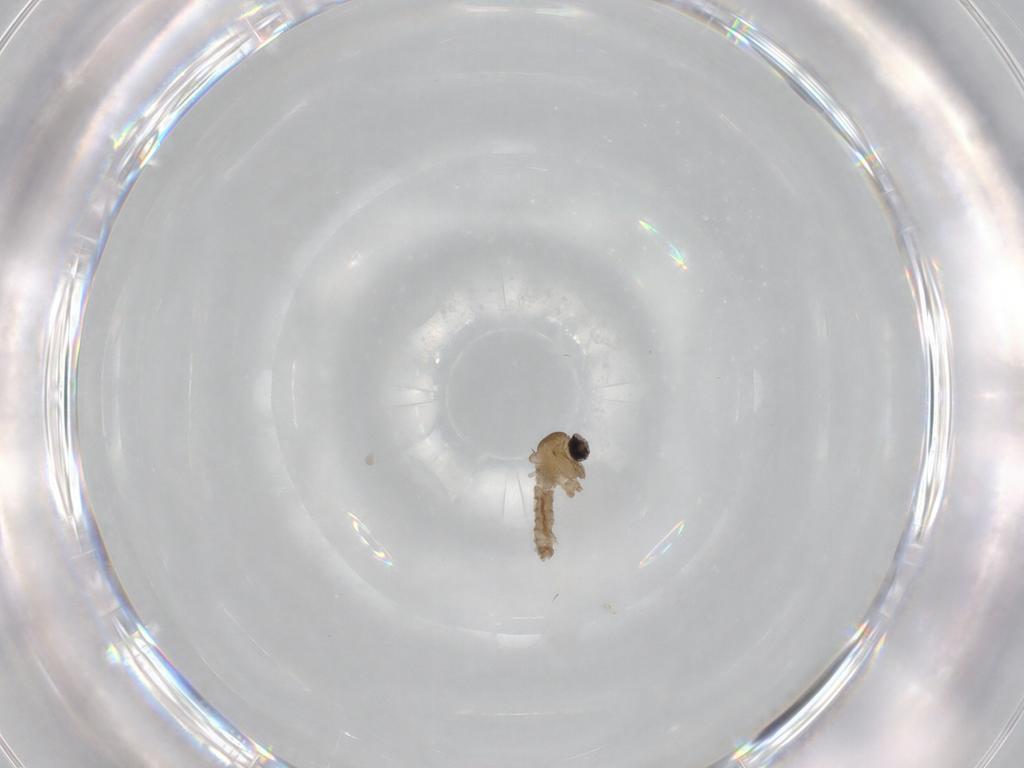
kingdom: Animalia
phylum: Arthropoda
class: Insecta
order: Diptera
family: Cecidomyiidae
